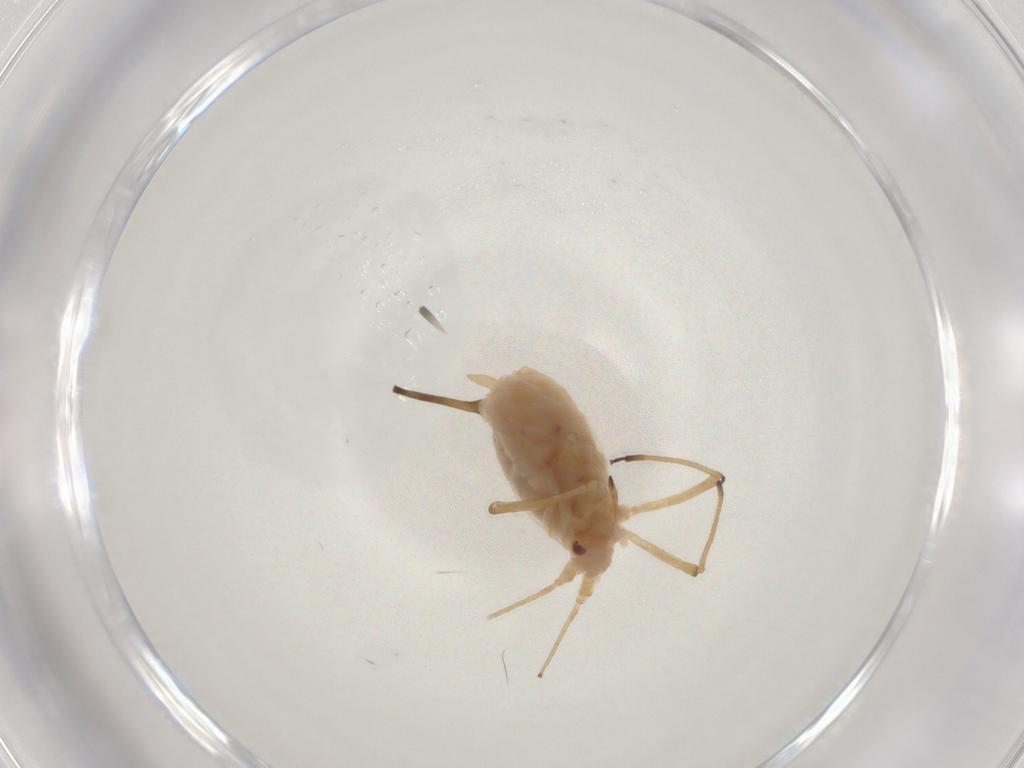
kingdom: Animalia
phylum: Arthropoda
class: Insecta
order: Hemiptera
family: Aphididae
